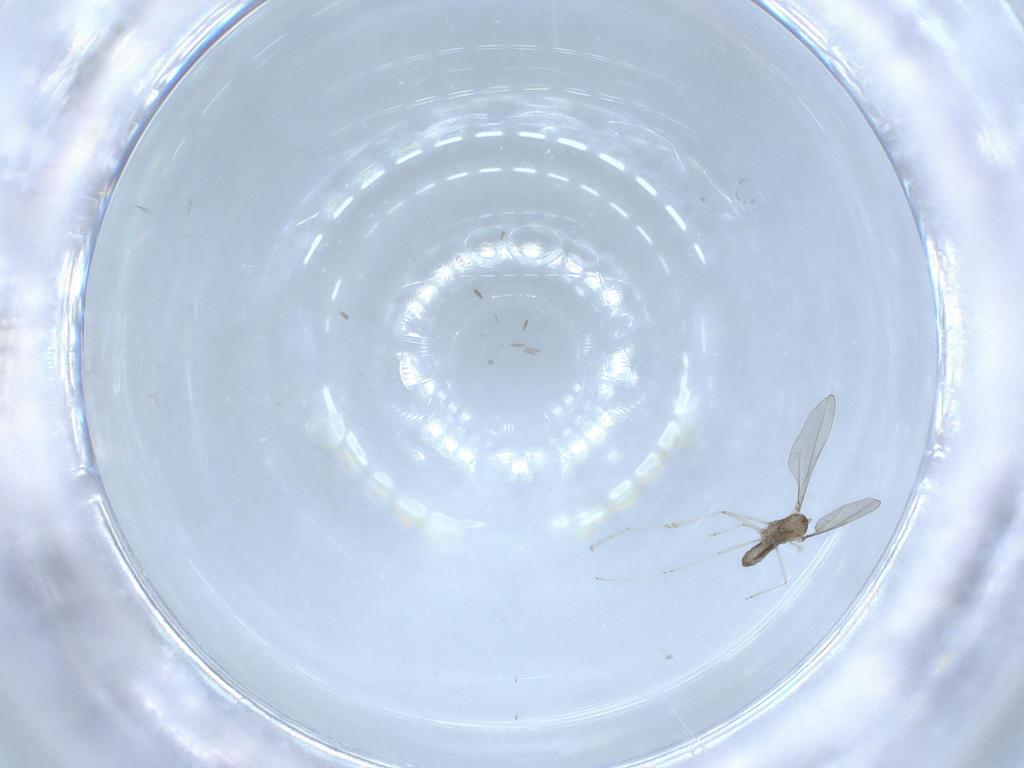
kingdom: Animalia
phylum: Arthropoda
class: Insecta
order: Diptera
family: Cecidomyiidae
